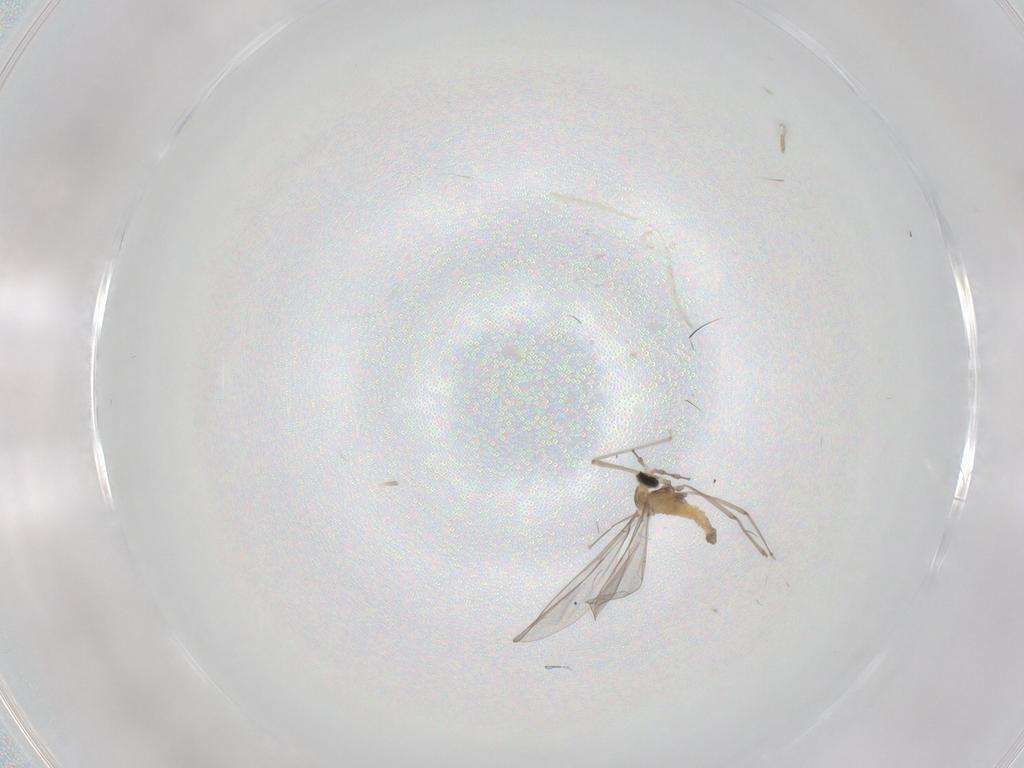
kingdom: Animalia
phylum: Arthropoda
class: Insecta
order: Diptera
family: Cecidomyiidae
